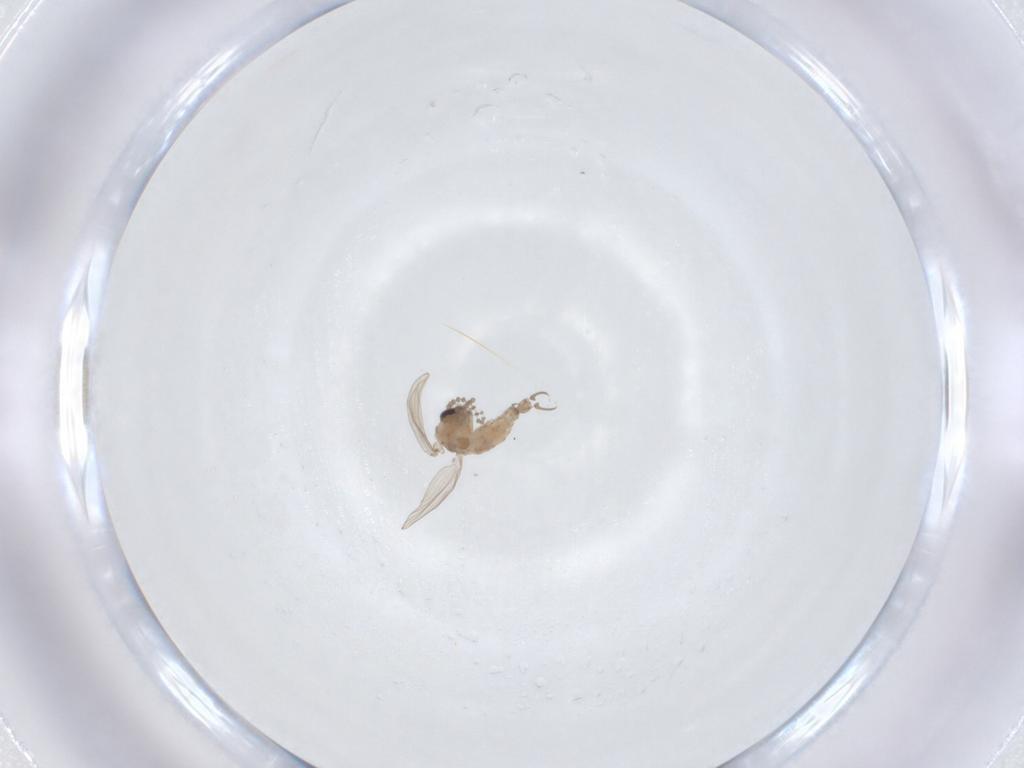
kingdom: Animalia
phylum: Arthropoda
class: Insecta
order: Diptera
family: Psychodidae
